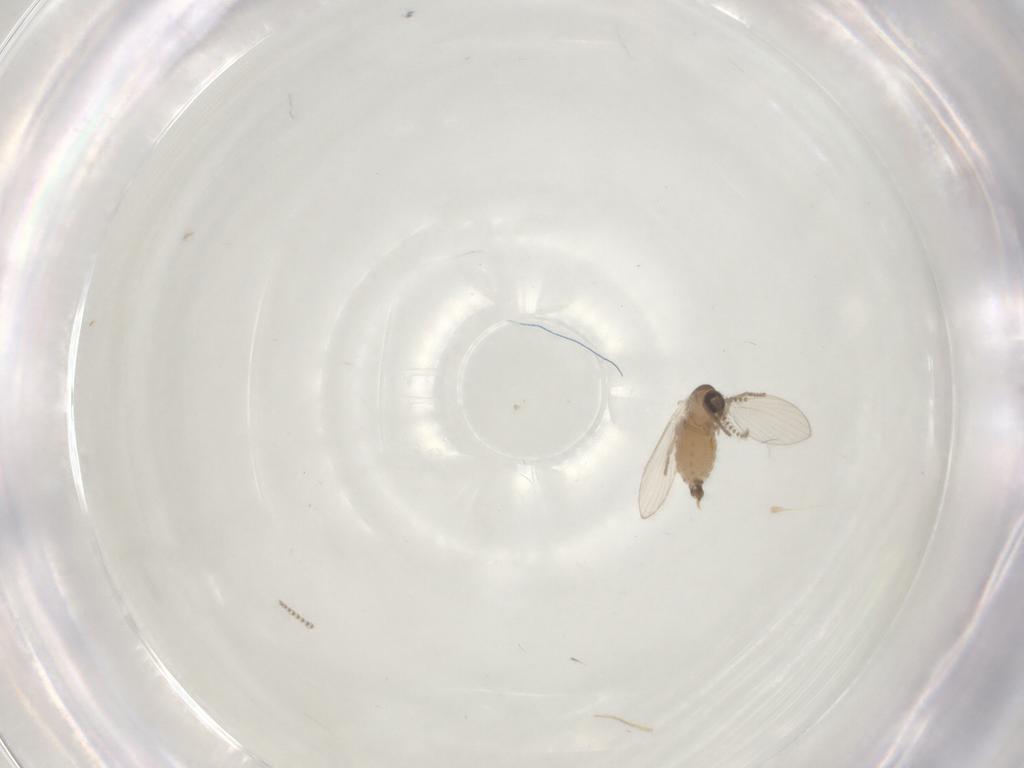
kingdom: Animalia
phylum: Arthropoda
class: Insecta
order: Diptera
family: Psychodidae
